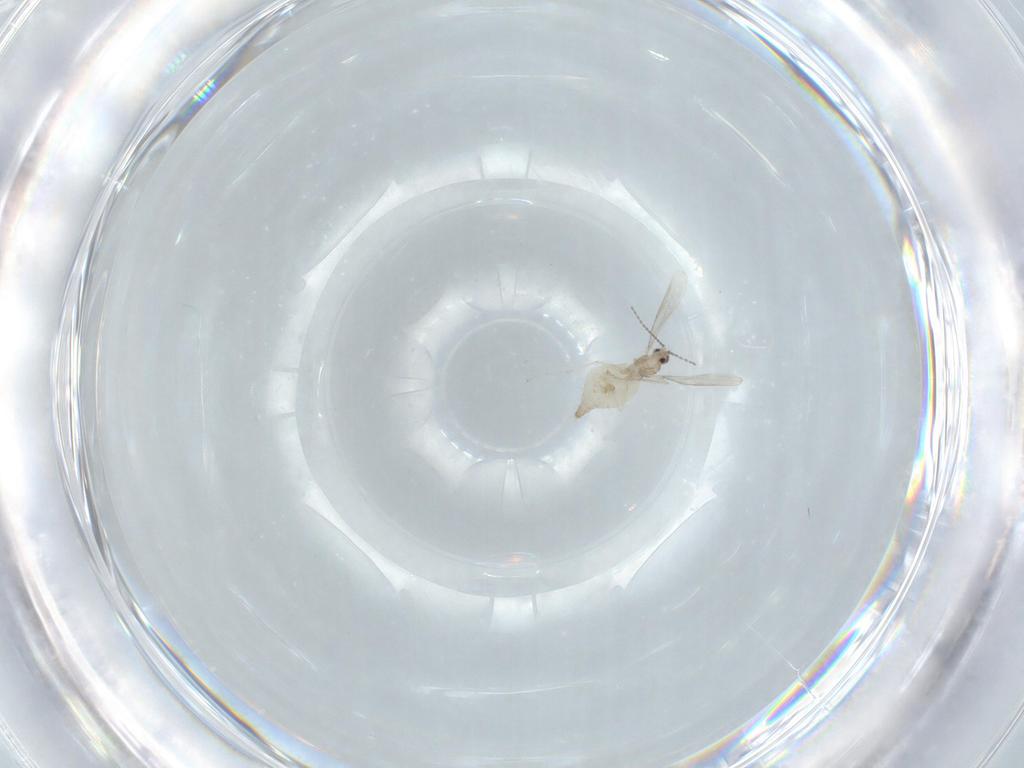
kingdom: Animalia
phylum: Arthropoda
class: Insecta
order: Diptera
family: Cecidomyiidae
